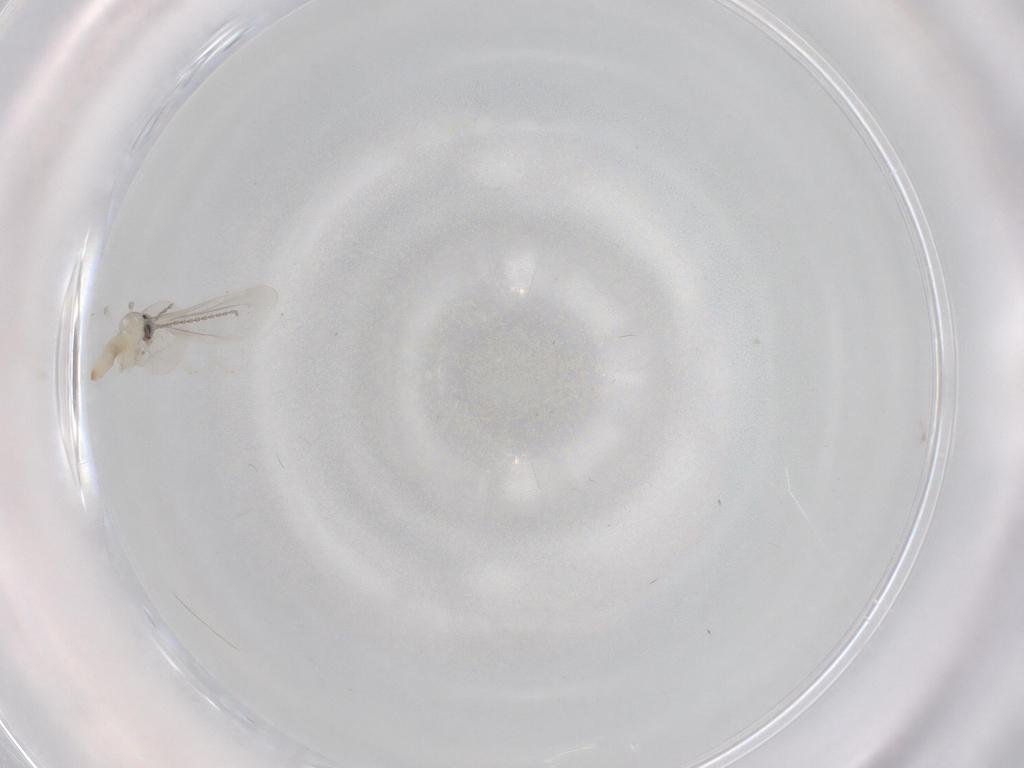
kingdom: Animalia
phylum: Arthropoda
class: Insecta
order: Diptera
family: Cecidomyiidae
